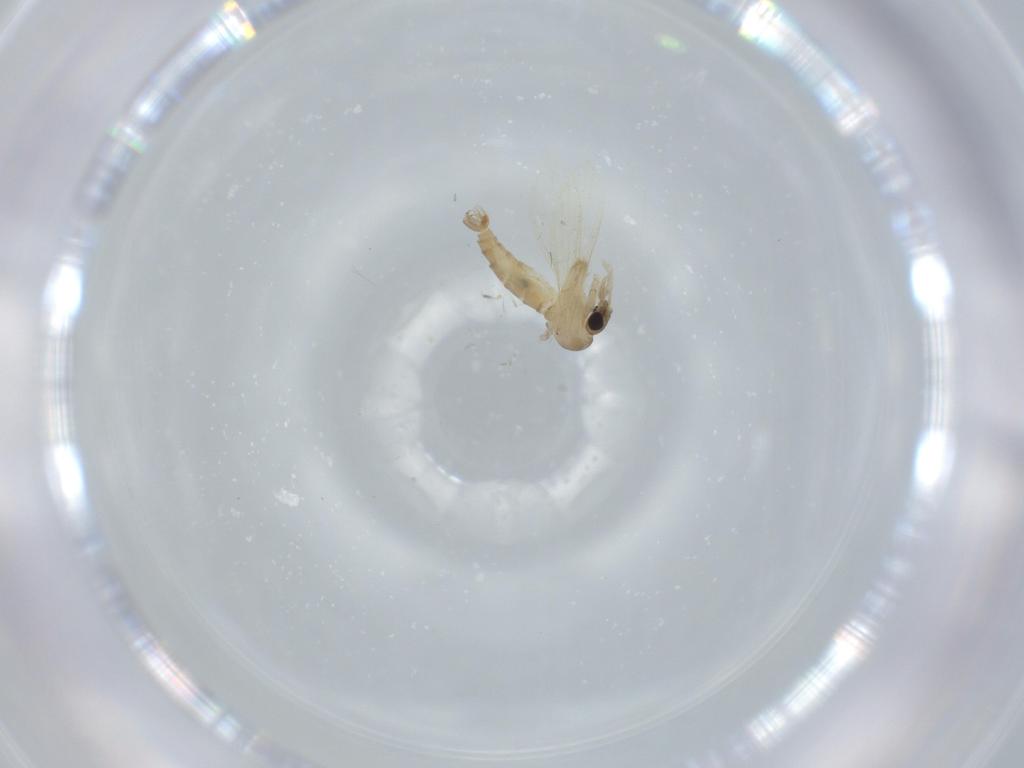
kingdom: Animalia
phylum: Arthropoda
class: Insecta
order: Diptera
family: Psychodidae
